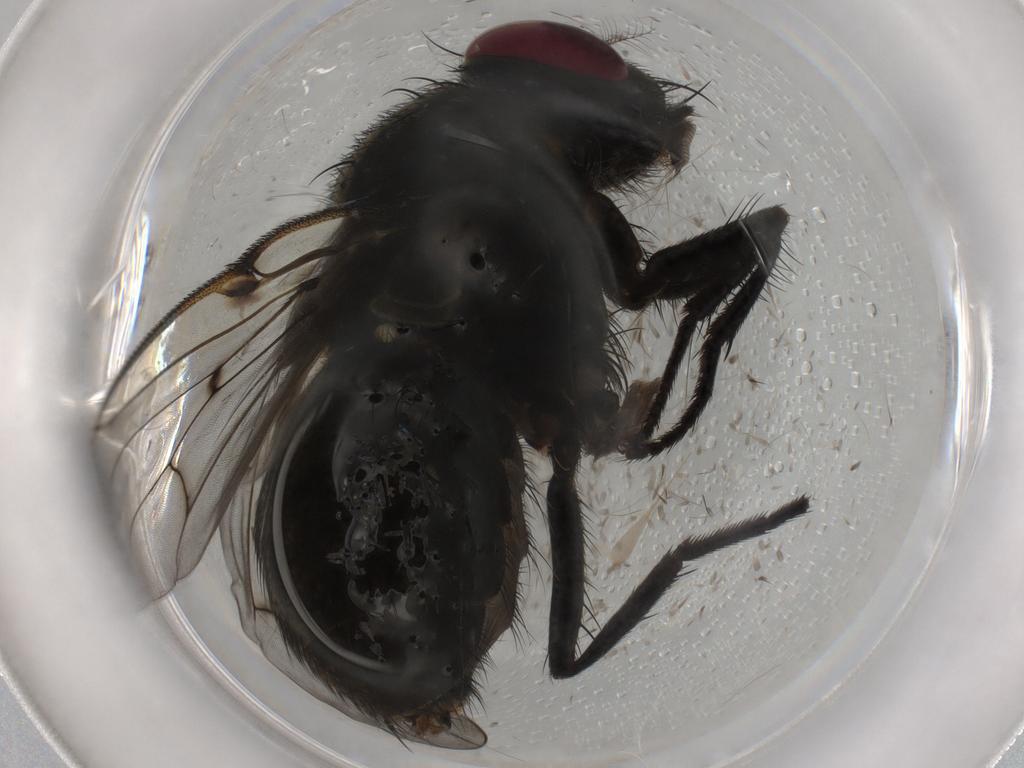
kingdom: Animalia
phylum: Arthropoda
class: Insecta
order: Diptera
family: Muscidae
